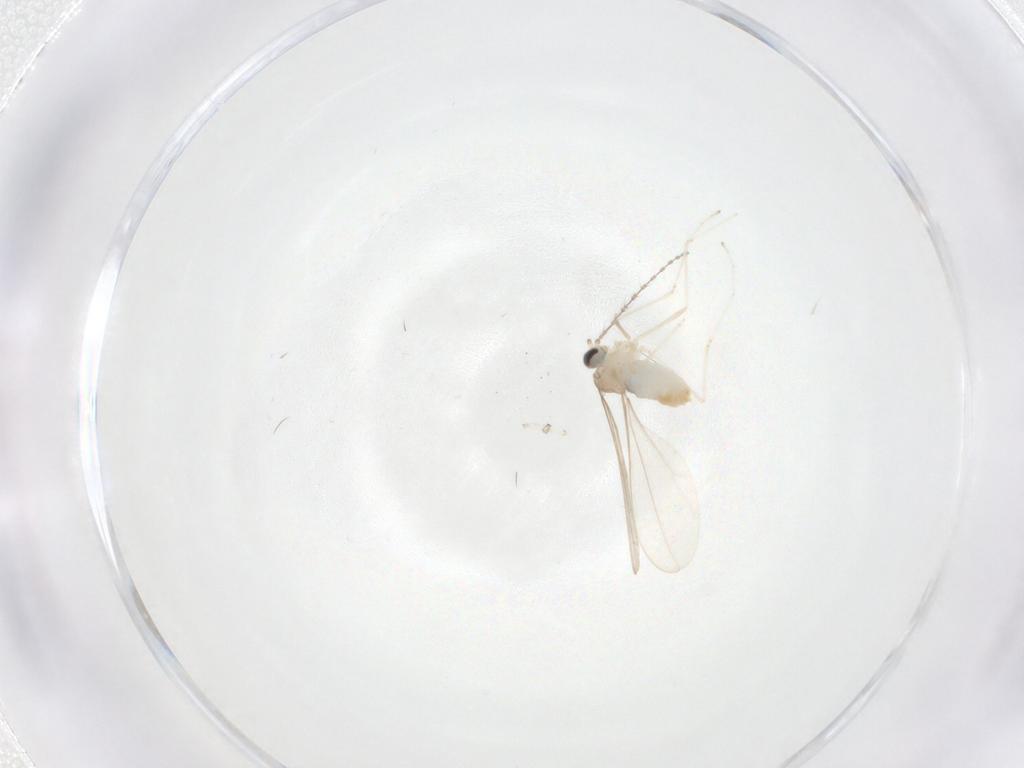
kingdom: Animalia
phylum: Arthropoda
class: Insecta
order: Diptera
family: Cecidomyiidae
